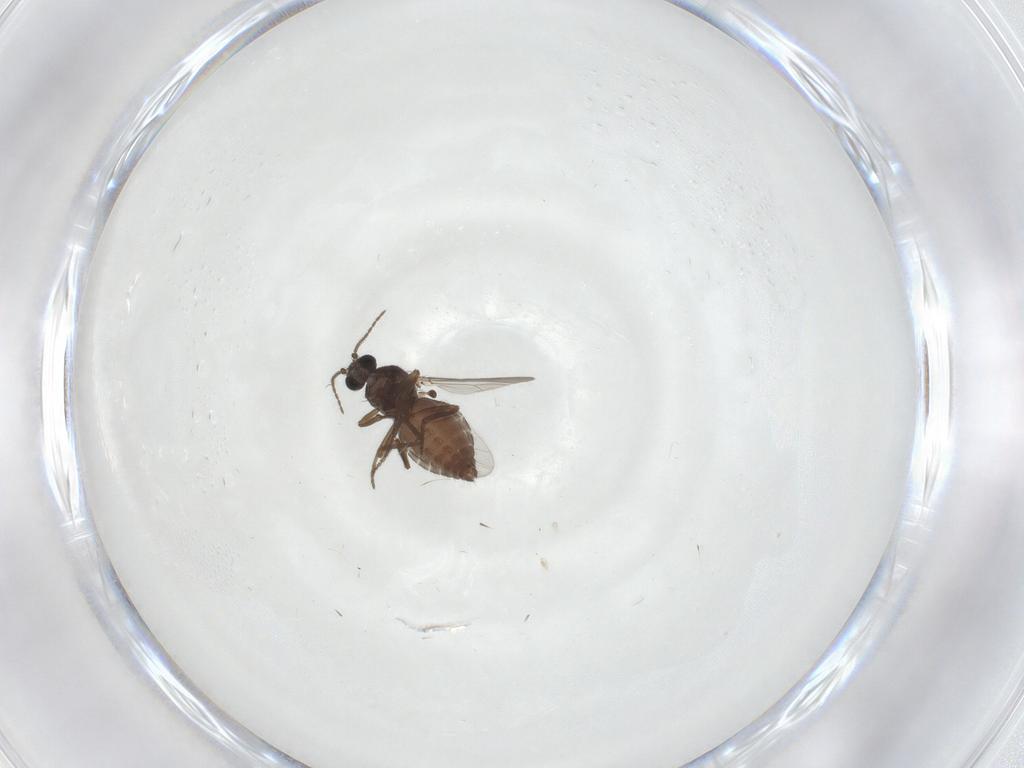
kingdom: Animalia
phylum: Arthropoda
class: Insecta
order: Diptera
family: Ceratopogonidae
